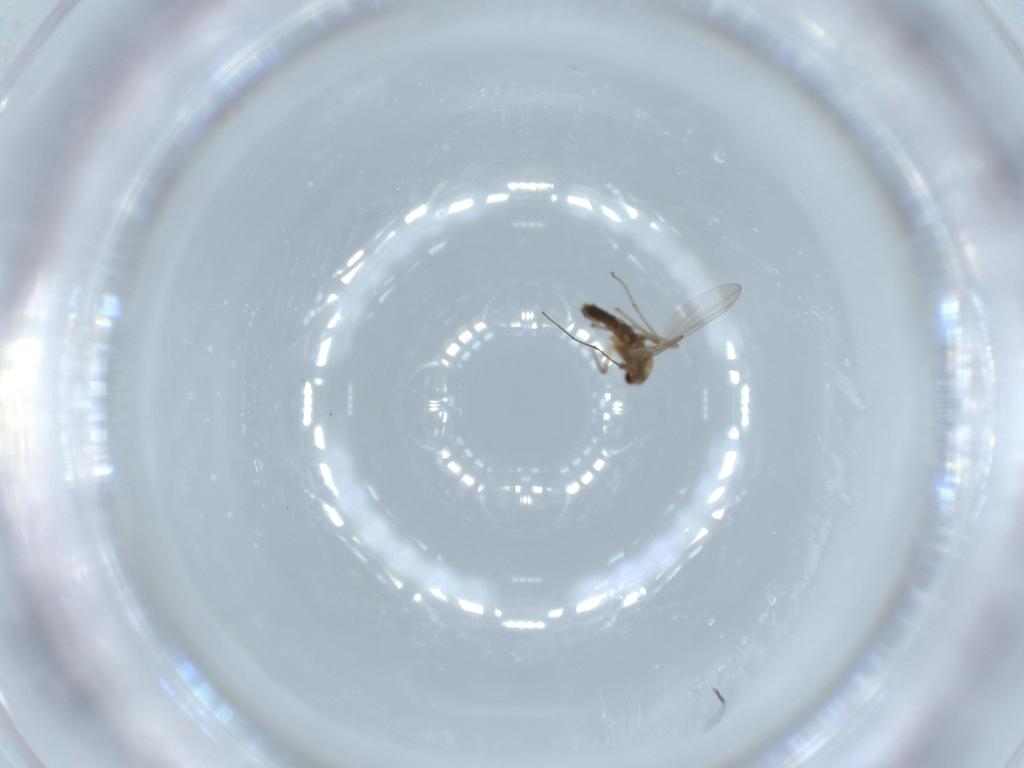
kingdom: Animalia
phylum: Arthropoda
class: Insecta
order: Diptera
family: Chironomidae
